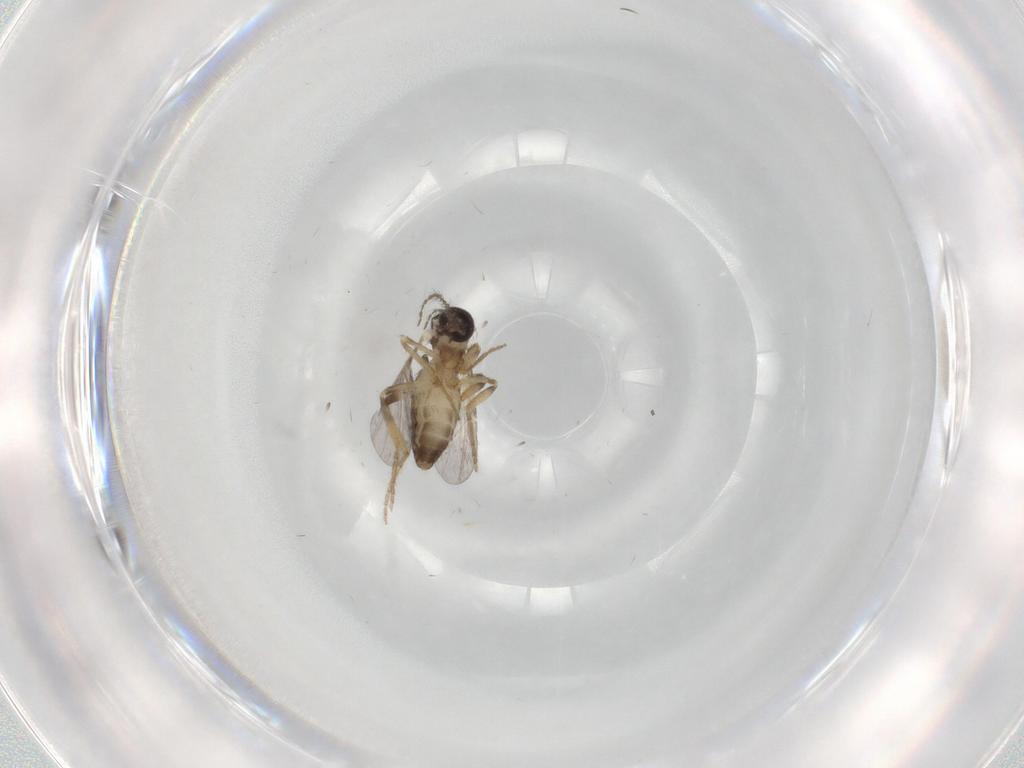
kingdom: Animalia
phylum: Arthropoda
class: Insecta
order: Diptera
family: Ceratopogonidae
